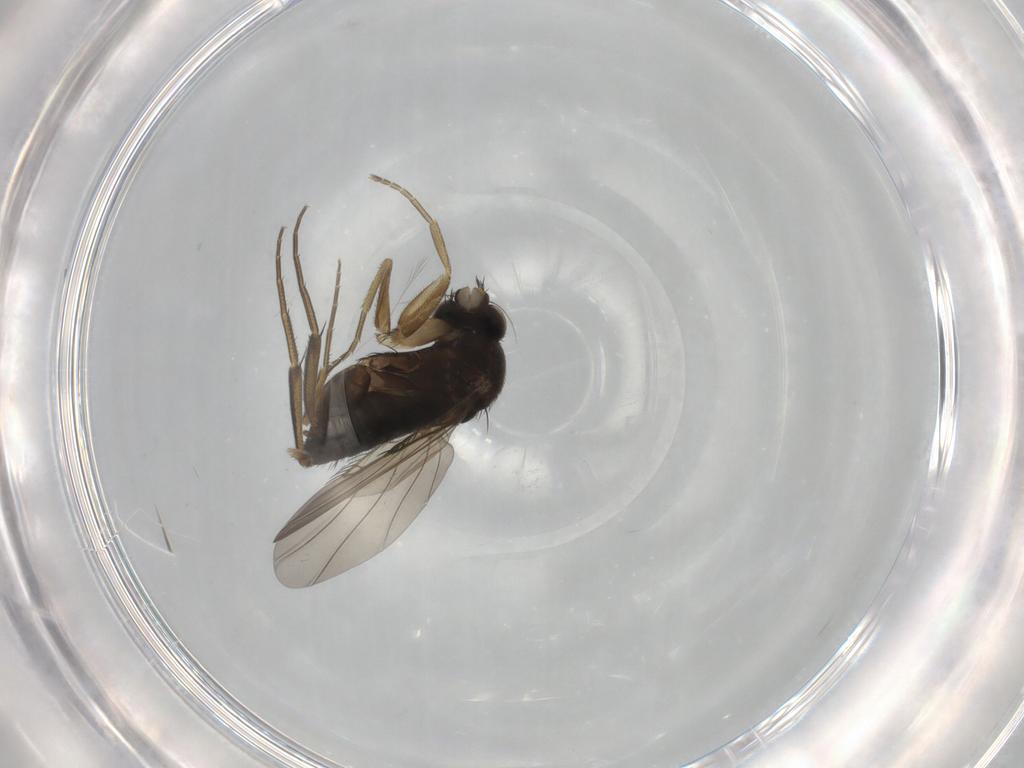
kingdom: Animalia
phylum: Arthropoda
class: Insecta
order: Diptera
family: Phoridae
